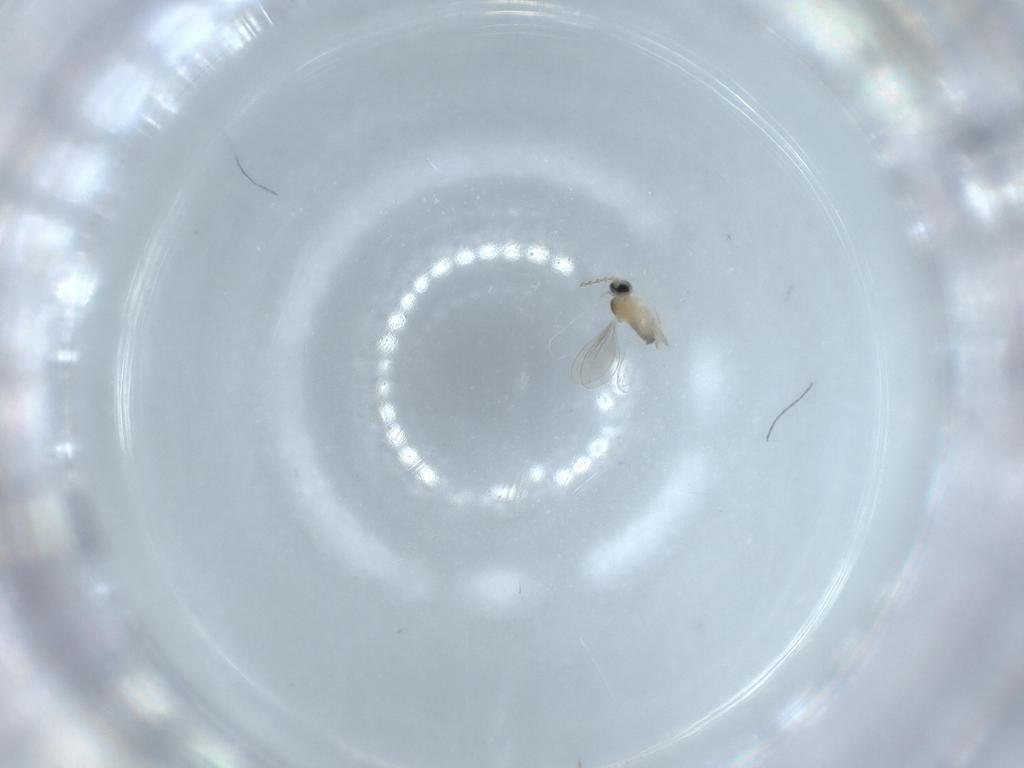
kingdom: Animalia
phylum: Arthropoda
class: Insecta
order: Diptera
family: Cecidomyiidae
